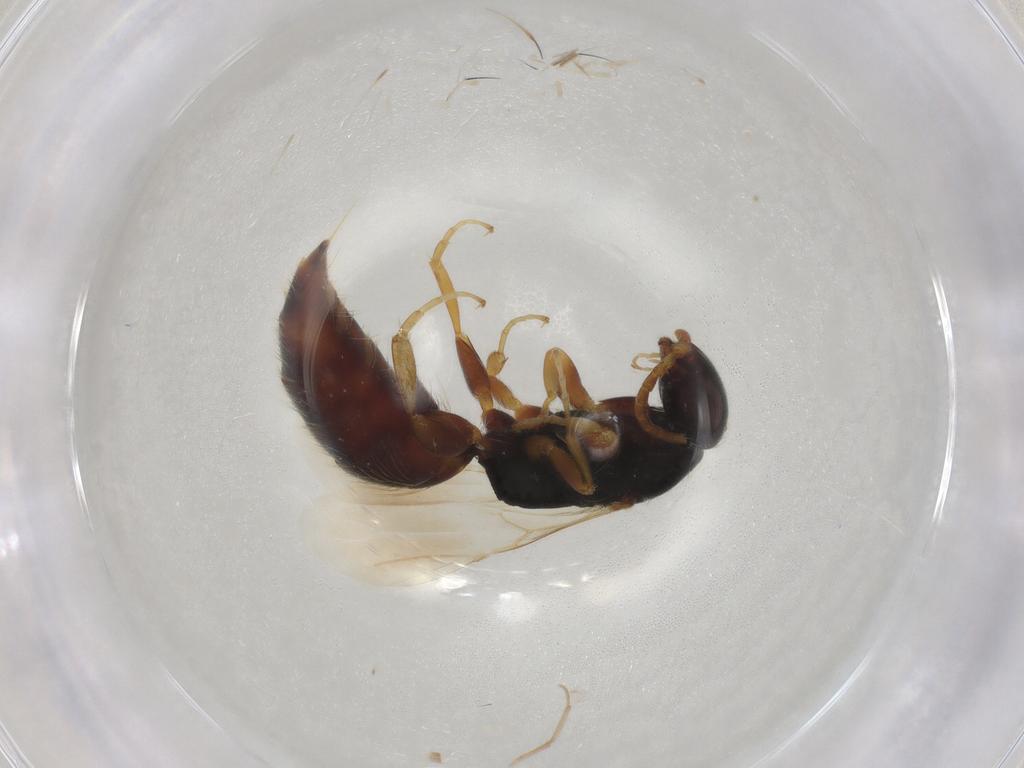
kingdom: Animalia
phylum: Arthropoda
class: Insecta
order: Hymenoptera
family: Bethylidae
